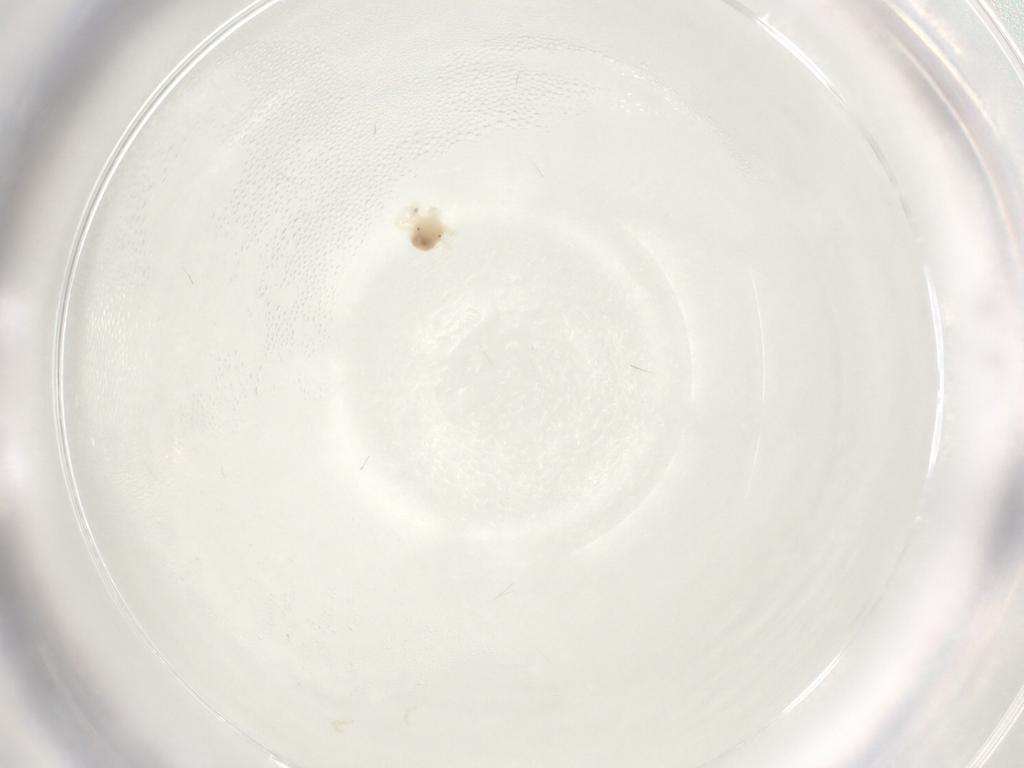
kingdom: Animalia
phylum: Arthropoda
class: Arachnida
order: Trombidiformes
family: Anystidae
